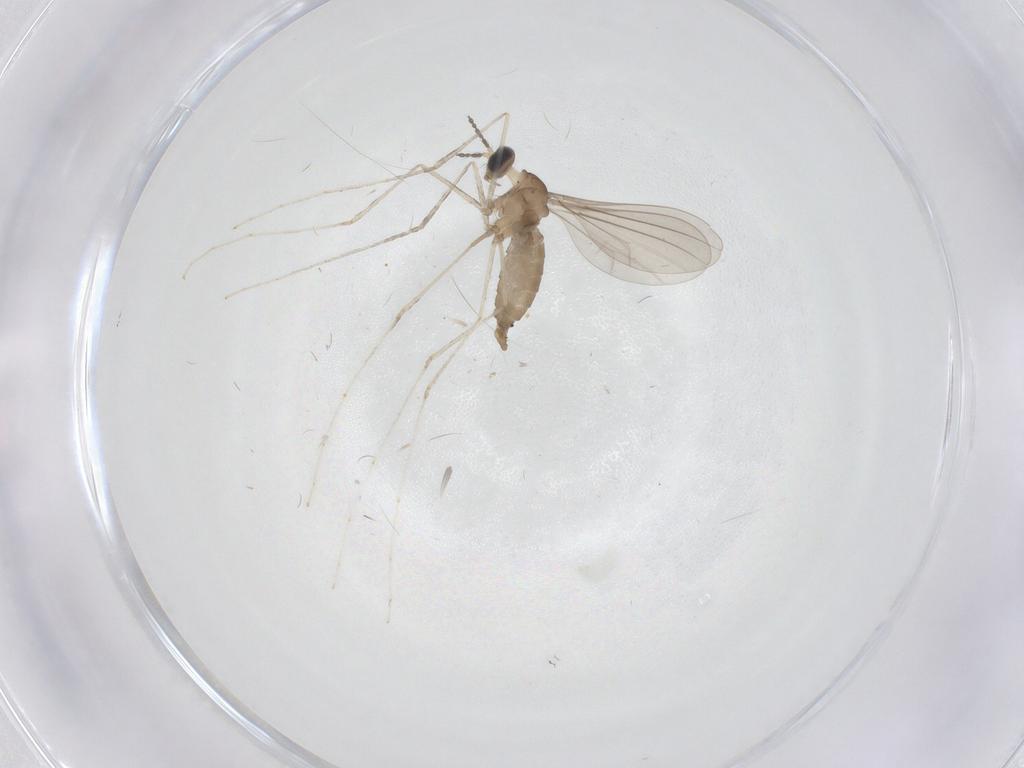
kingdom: Animalia
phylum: Arthropoda
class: Insecta
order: Diptera
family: Cecidomyiidae
